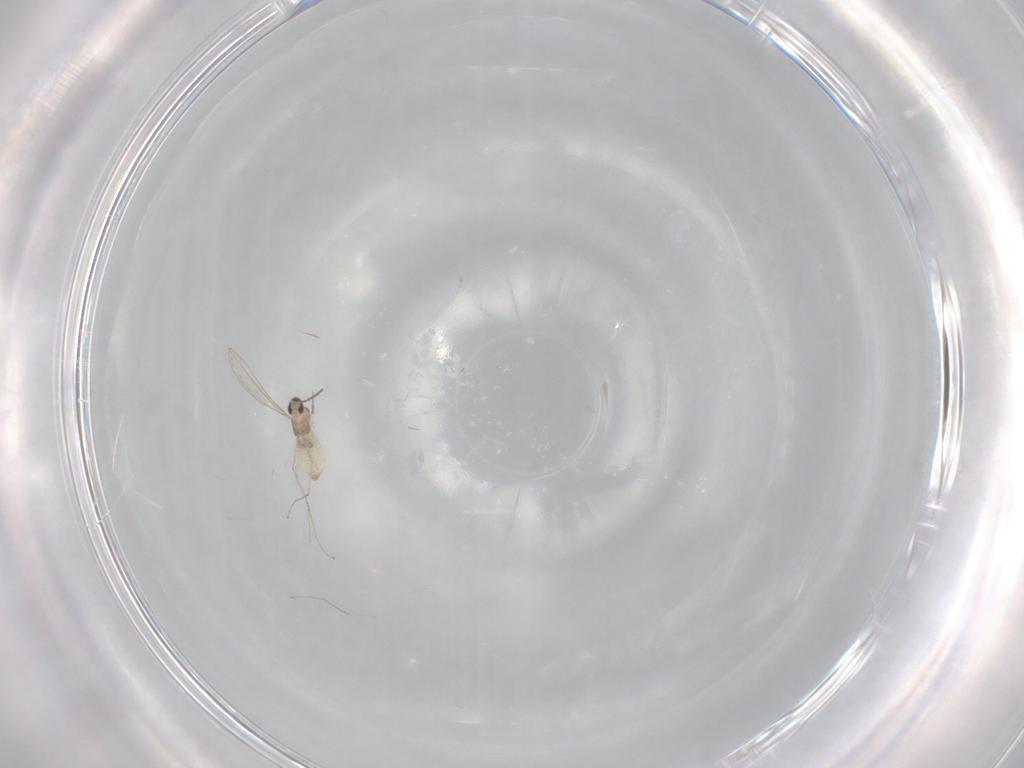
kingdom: Animalia
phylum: Arthropoda
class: Insecta
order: Diptera
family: Cecidomyiidae
